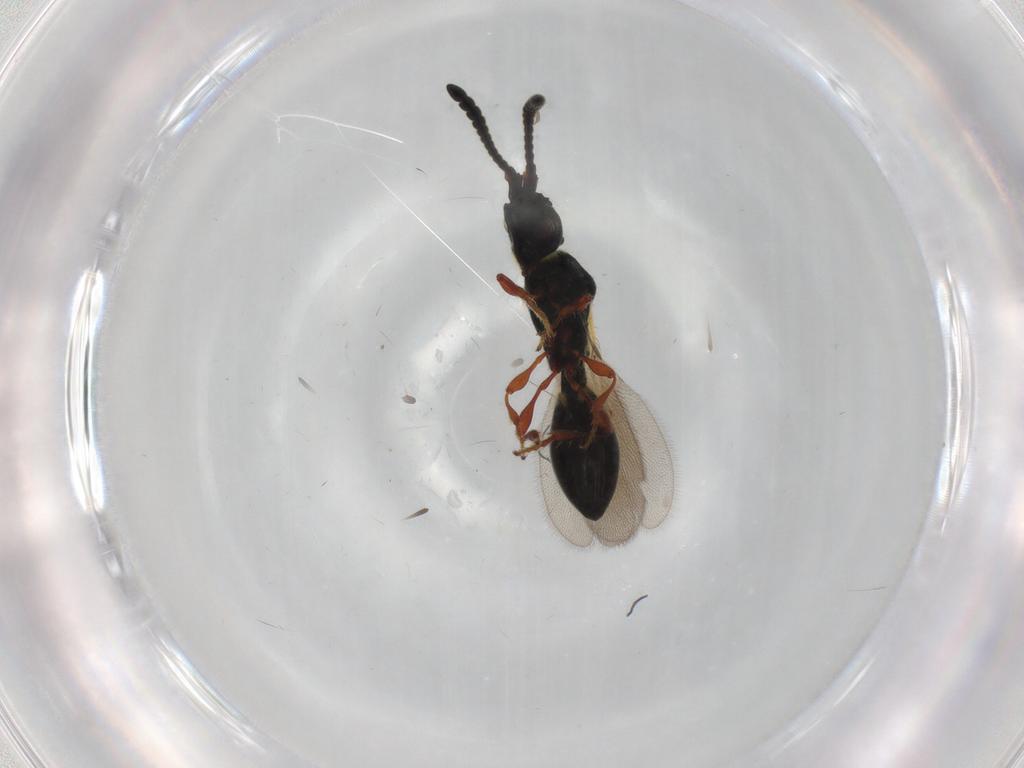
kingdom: Animalia
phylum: Arthropoda
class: Insecta
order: Hymenoptera
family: Diapriidae
